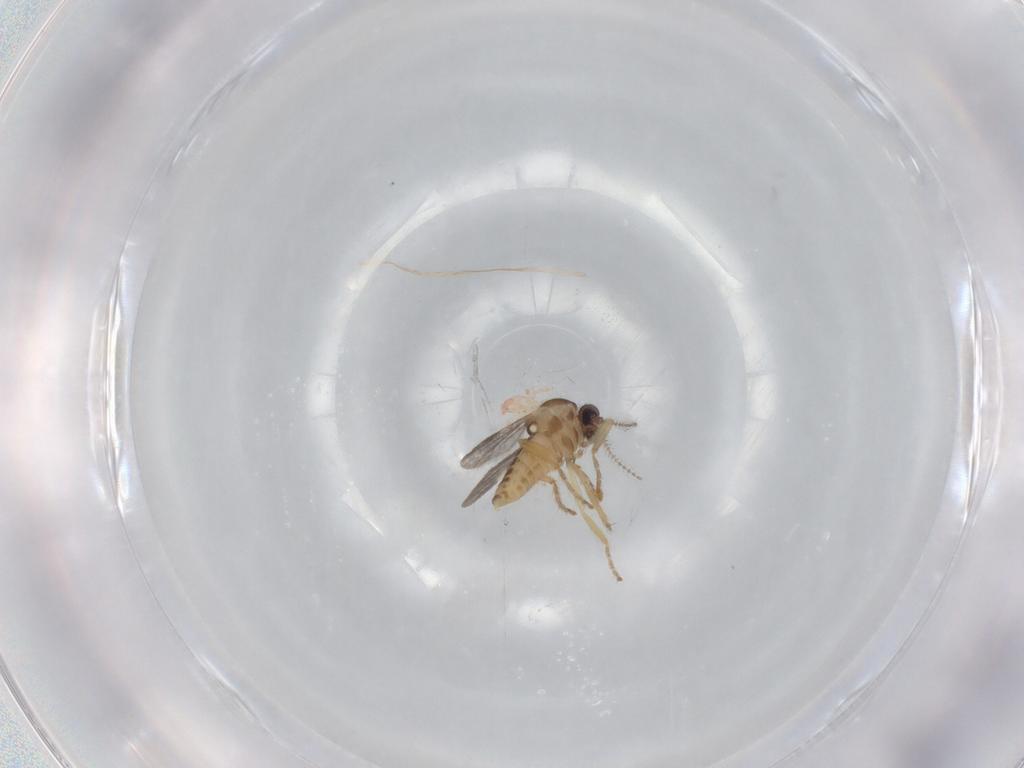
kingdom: Animalia
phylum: Arthropoda
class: Insecta
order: Diptera
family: Ceratopogonidae
